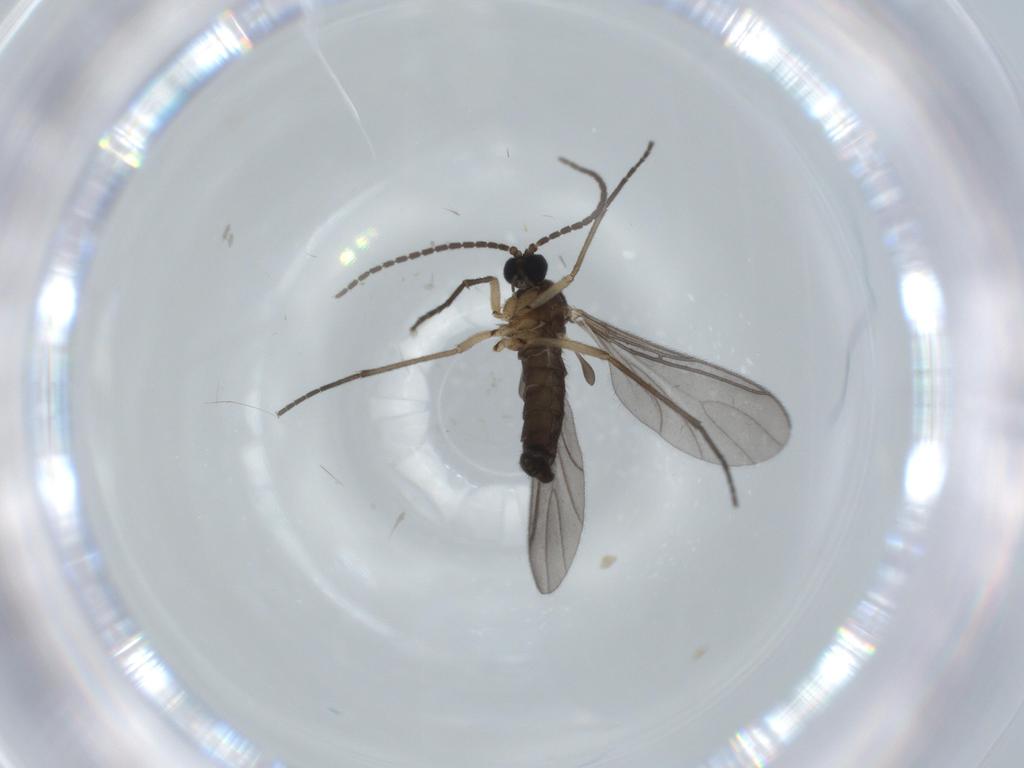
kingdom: Animalia
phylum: Arthropoda
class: Insecta
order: Diptera
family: Sciaridae
